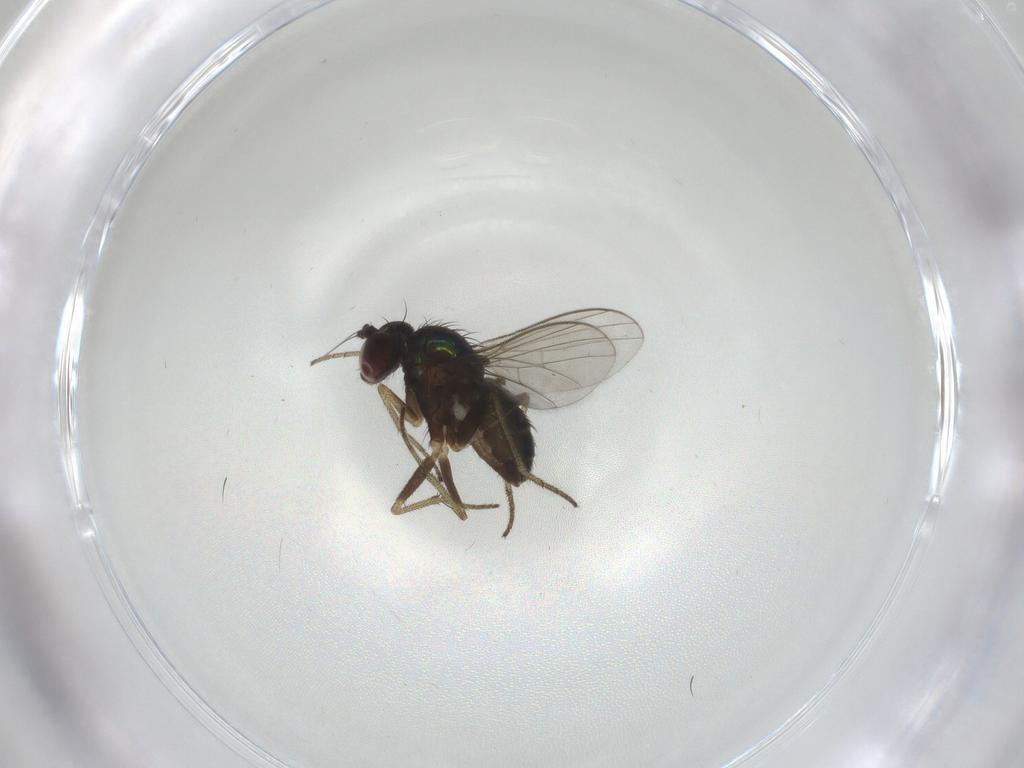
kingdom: Animalia
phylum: Arthropoda
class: Insecta
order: Diptera
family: Dolichopodidae
